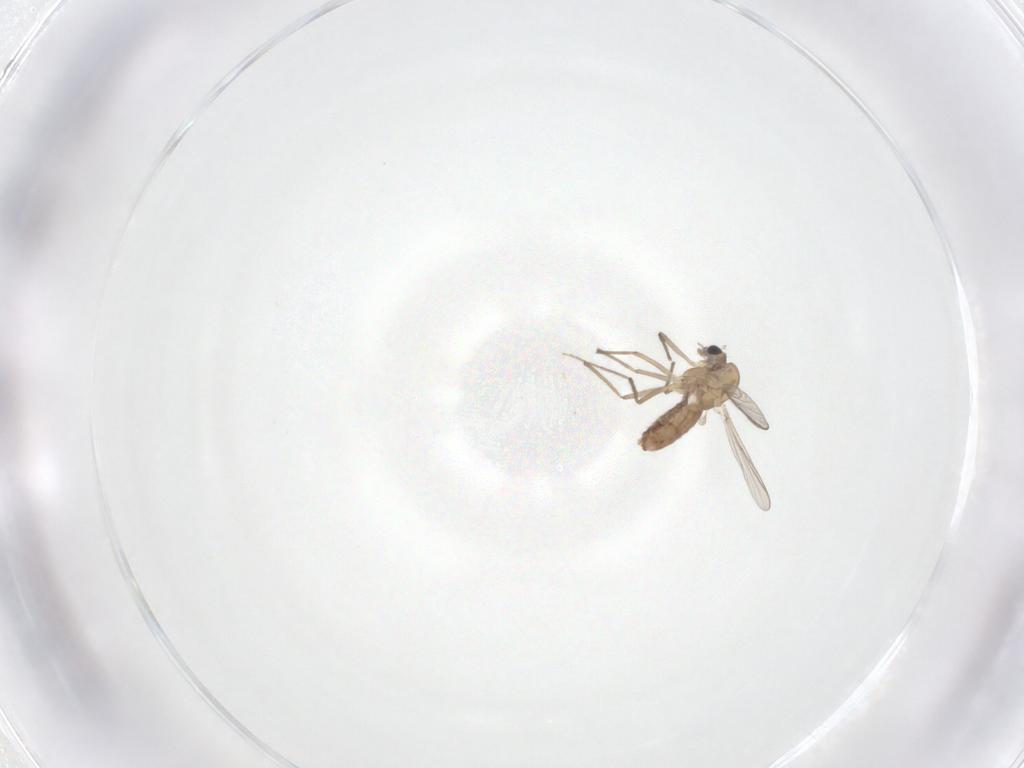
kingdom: Animalia
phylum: Arthropoda
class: Insecta
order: Diptera
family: Chironomidae
